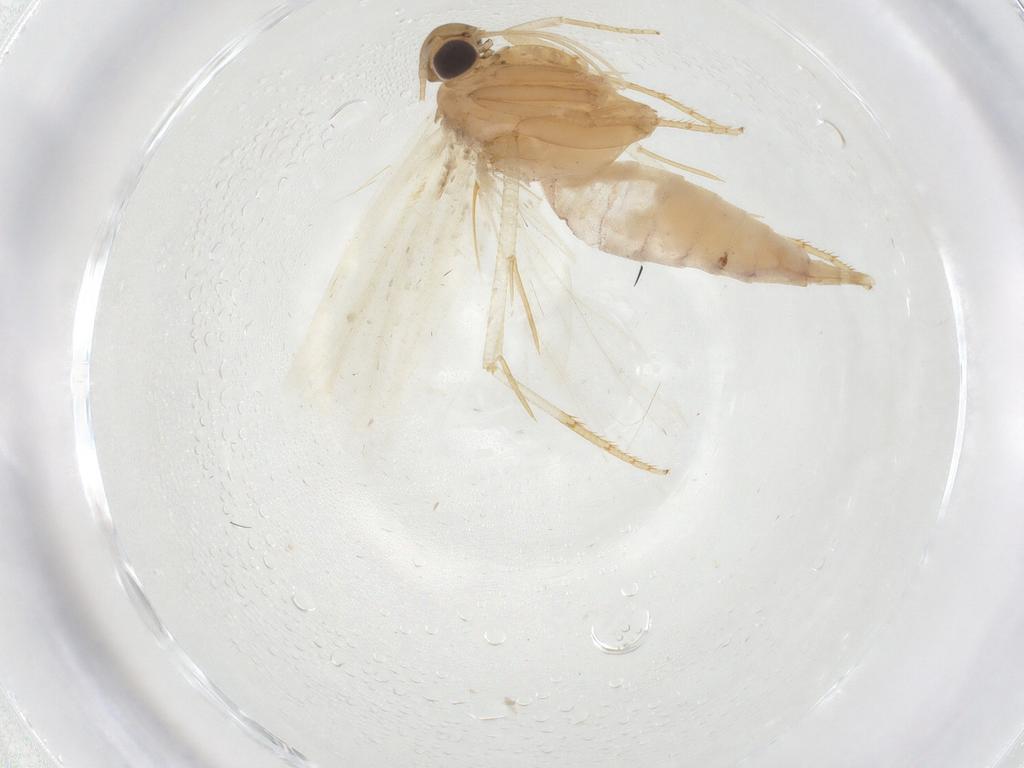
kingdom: Animalia
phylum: Arthropoda
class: Insecta
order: Lepidoptera
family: Gelechiidae
